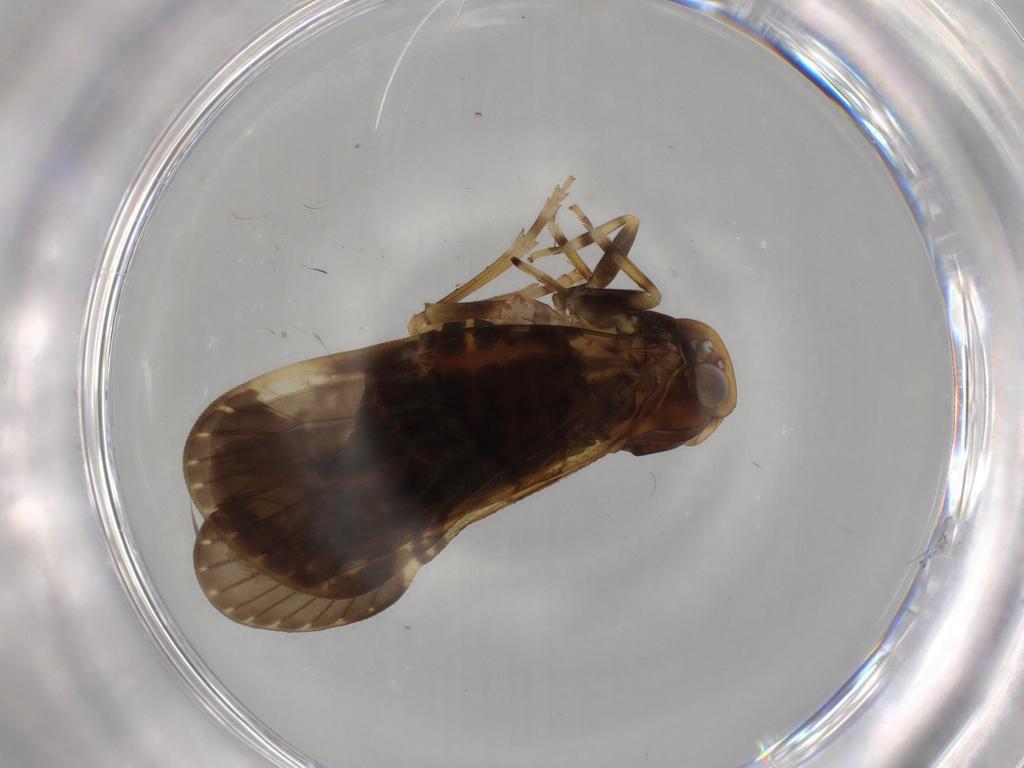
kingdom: Animalia
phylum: Arthropoda
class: Insecta
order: Hemiptera
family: Cixiidae
